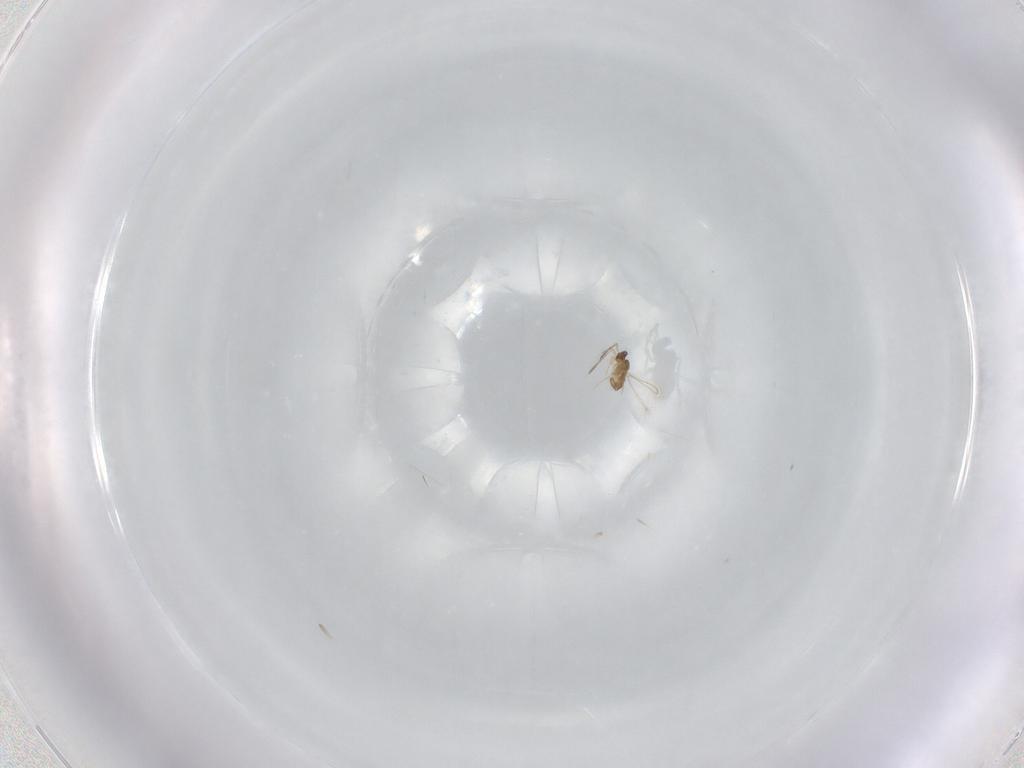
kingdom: Animalia
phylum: Arthropoda
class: Insecta
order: Hymenoptera
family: Mymaridae
